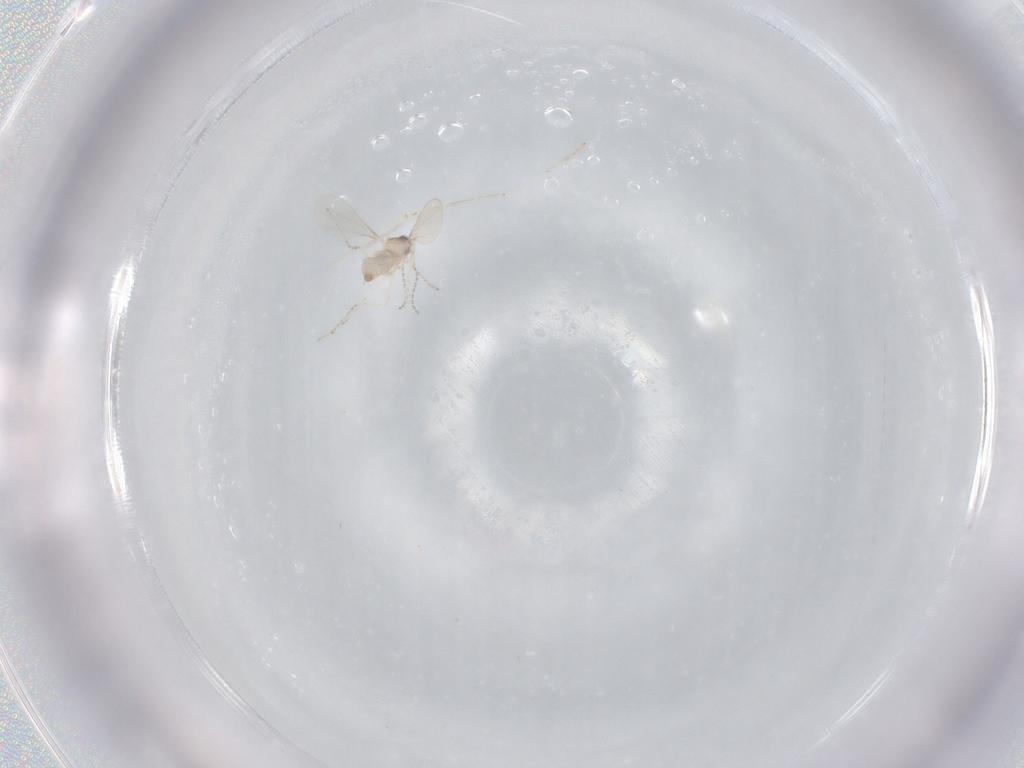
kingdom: Animalia
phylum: Arthropoda
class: Insecta
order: Diptera
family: Cecidomyiidae
